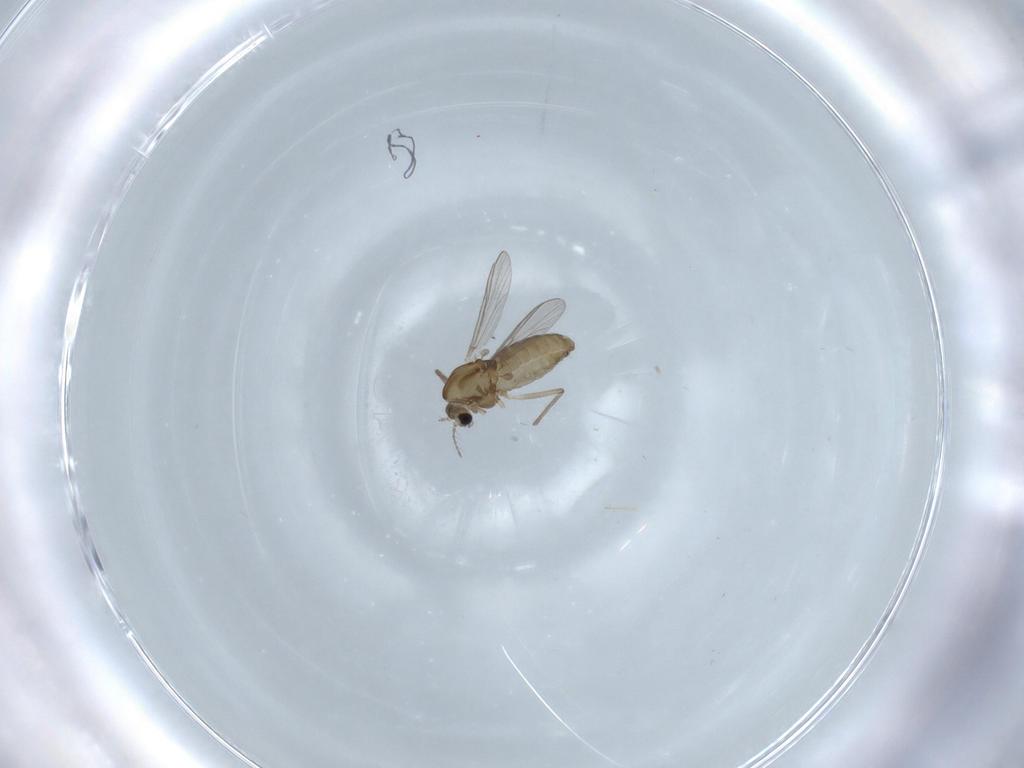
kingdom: Animalia
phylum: Arthropoda
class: Insecta
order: Diptera
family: Chironomidae
